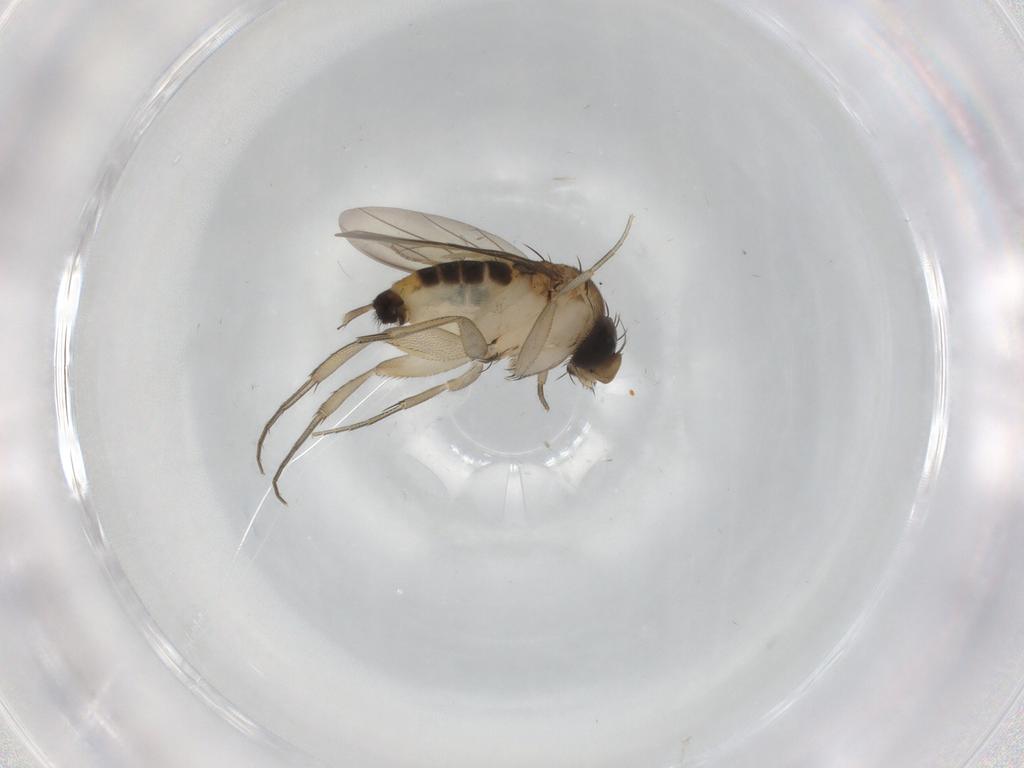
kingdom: Animalia
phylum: Arthropoda
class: Insecta
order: Diptera
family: Phoridae
